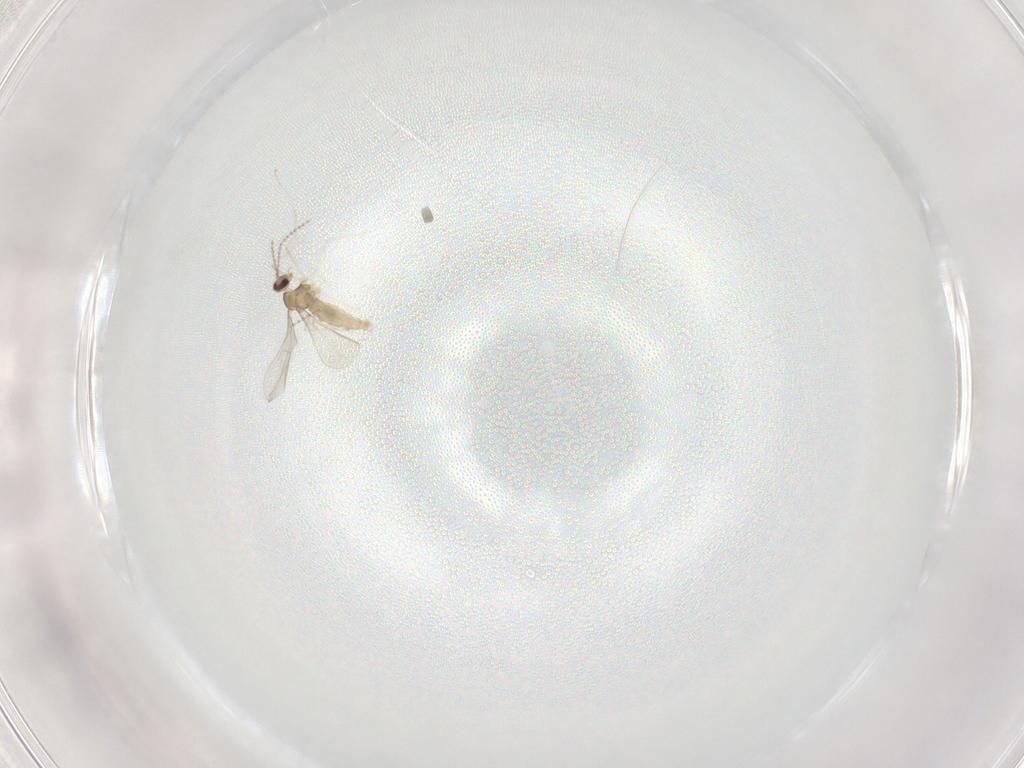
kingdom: Animalia
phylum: Arthropoda
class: Insecta
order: Diptera
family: Cecidomyiidae
